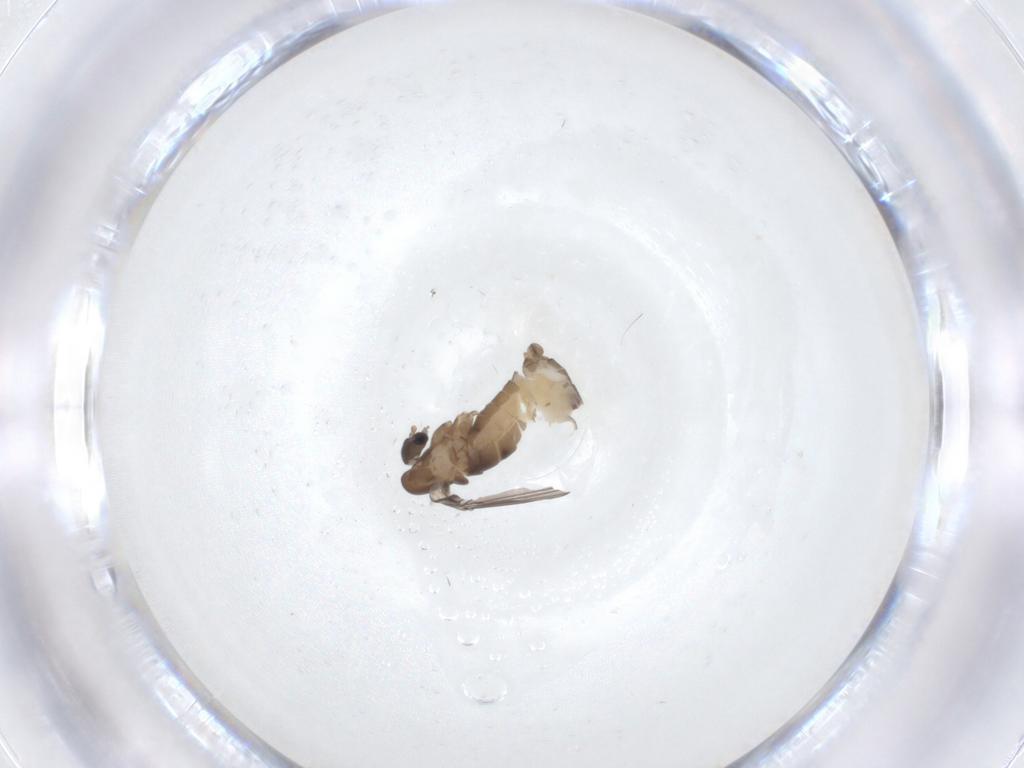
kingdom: Animalia
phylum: Arthropoda
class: Insecta
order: Diptera
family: Psychodidae
